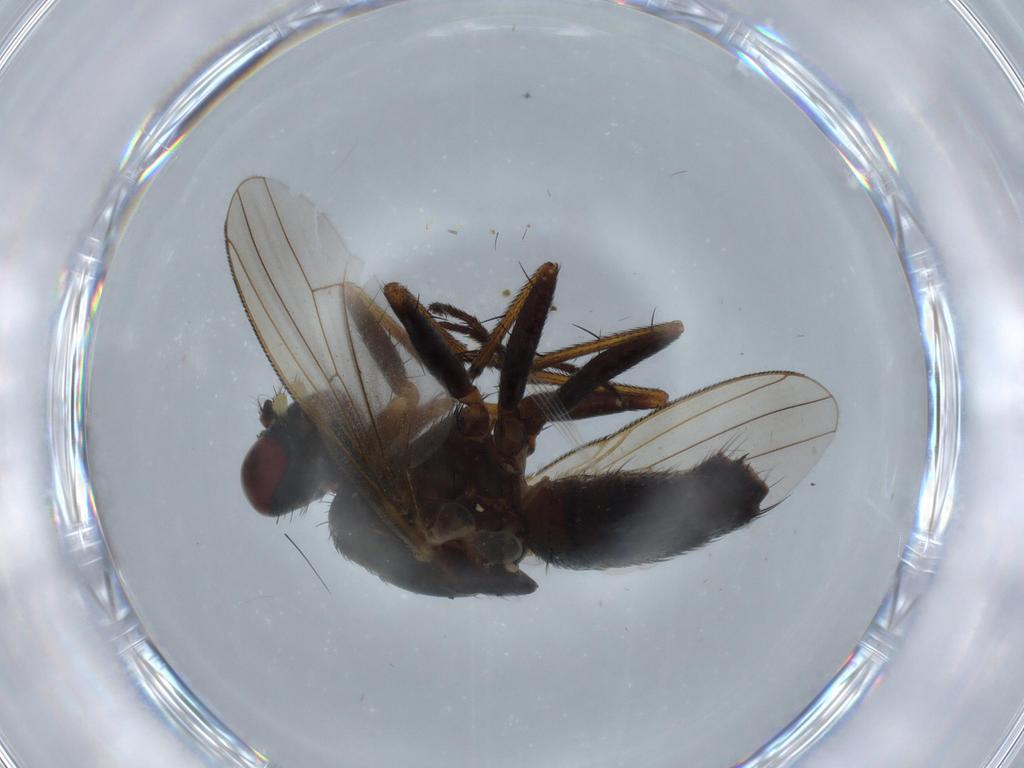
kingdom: Animalia
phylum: Arthropoda
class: Insecta
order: Diptera
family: Muscidae
